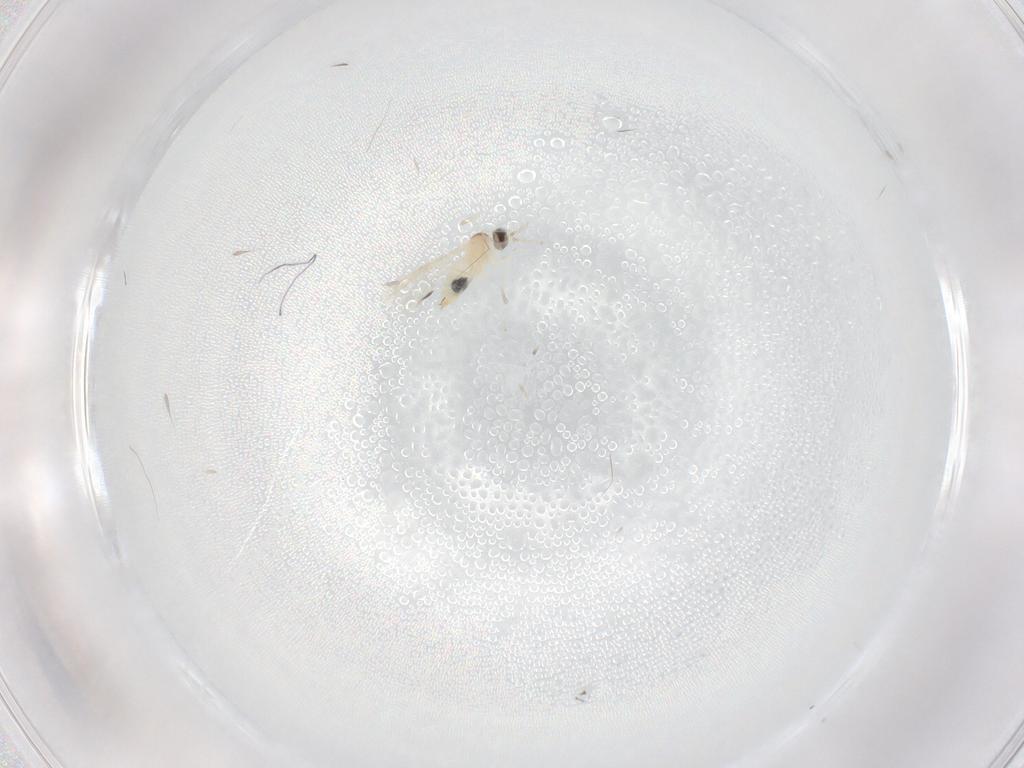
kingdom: Animalia
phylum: Arthropoda
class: Insecta
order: Diptera
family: Cecidomyiidae
